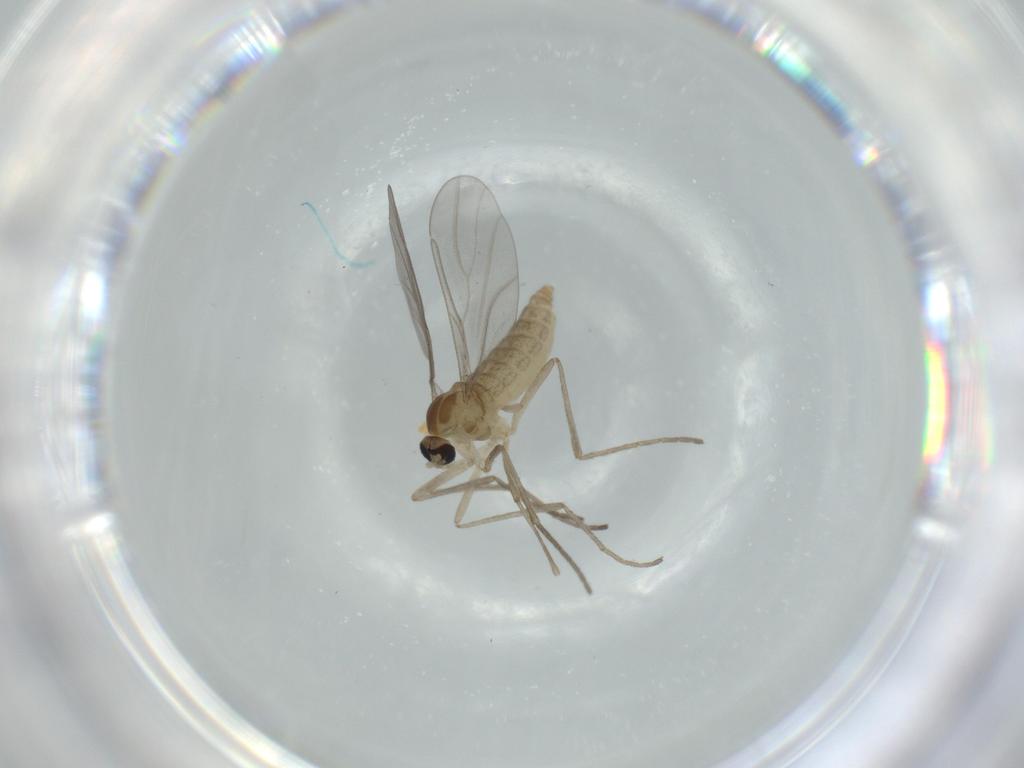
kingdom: Animalia
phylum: Arthropoda
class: Insecta
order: Diptera
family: Cecidomyiidae
